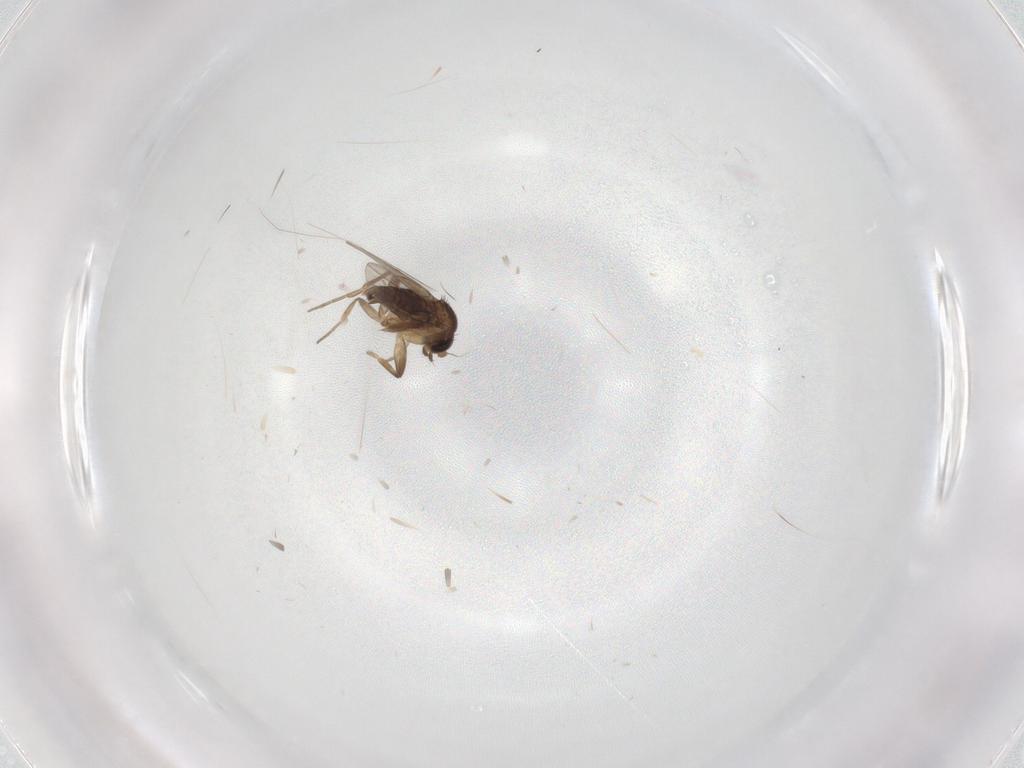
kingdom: Animalia
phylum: Arthropoda
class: Insecta
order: Diptera
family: Phoridae
